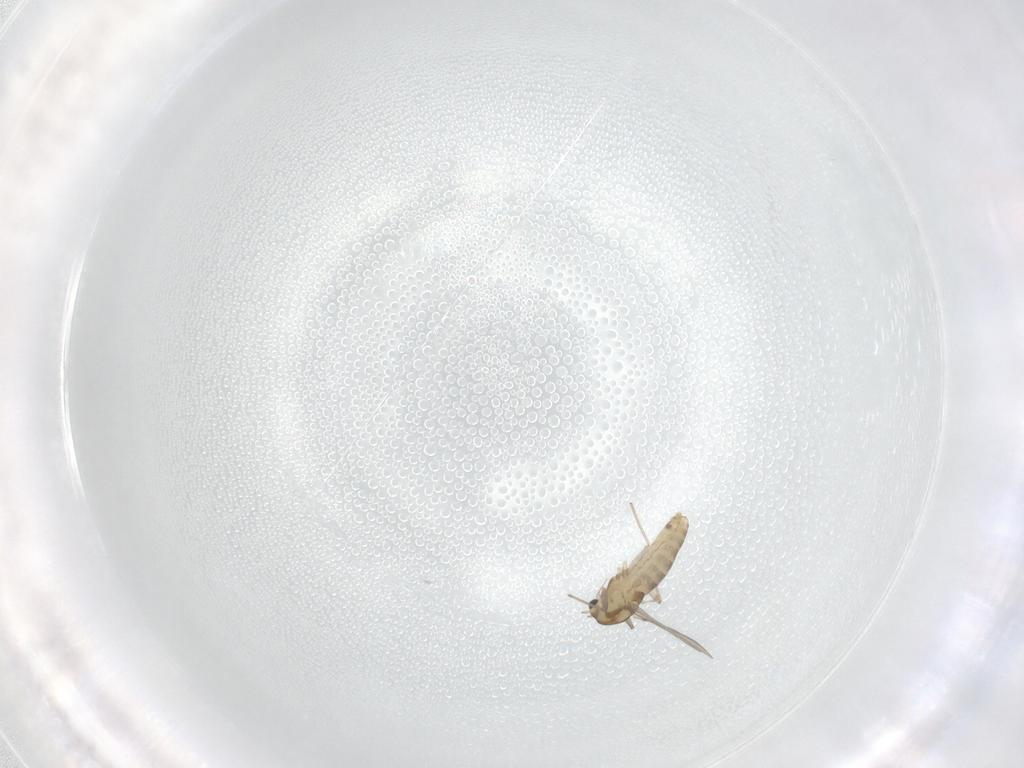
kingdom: Animalia
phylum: Arthropoda
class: Insecta
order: Diptera
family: Chironomidae
